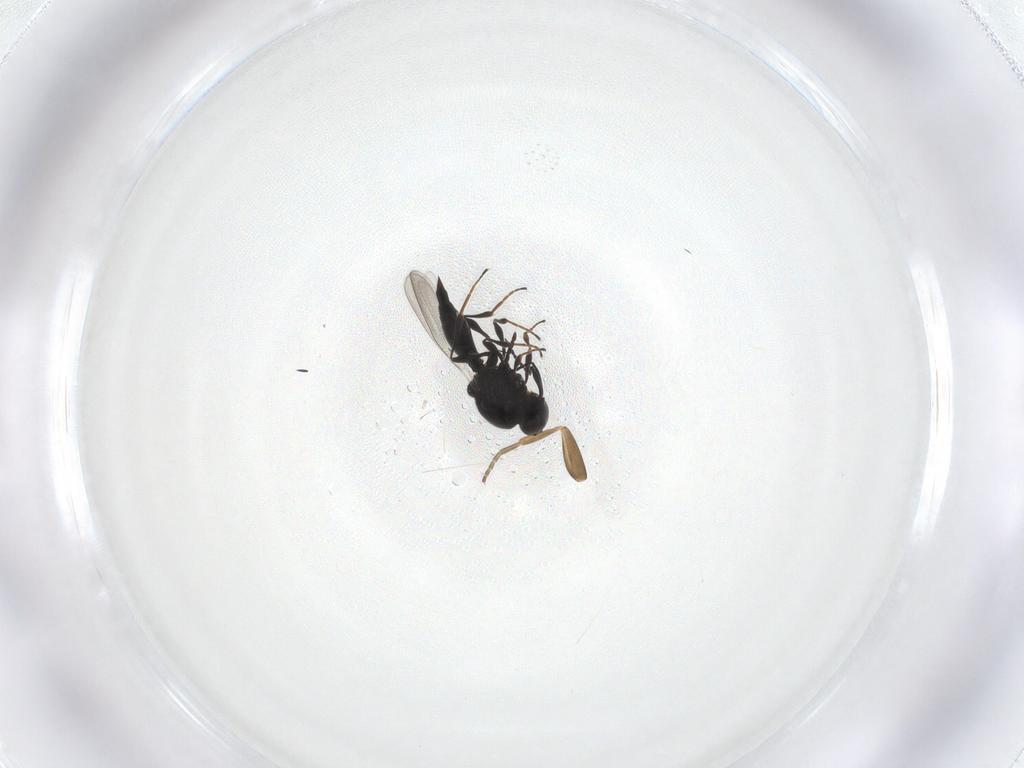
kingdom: Animalia
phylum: Arthropoda
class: Insecta
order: Hymenoptera
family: Platygastridae
